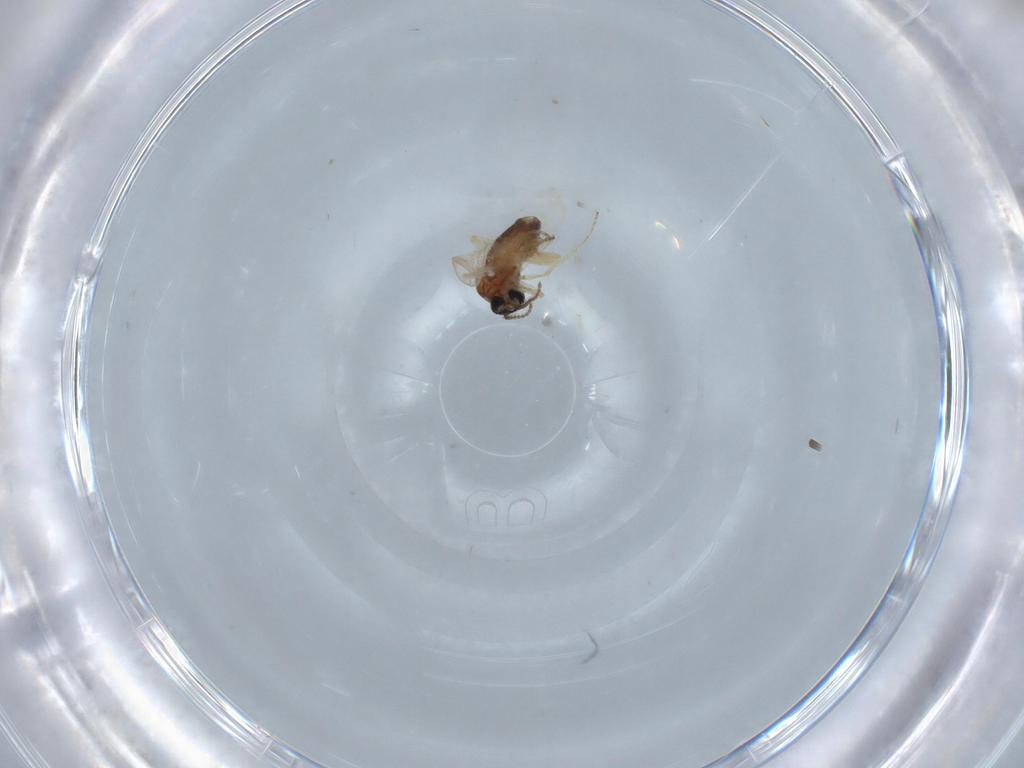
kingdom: Animalia
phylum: Arthropoda
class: Insecta
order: Diptera
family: Ceratopogonidae
